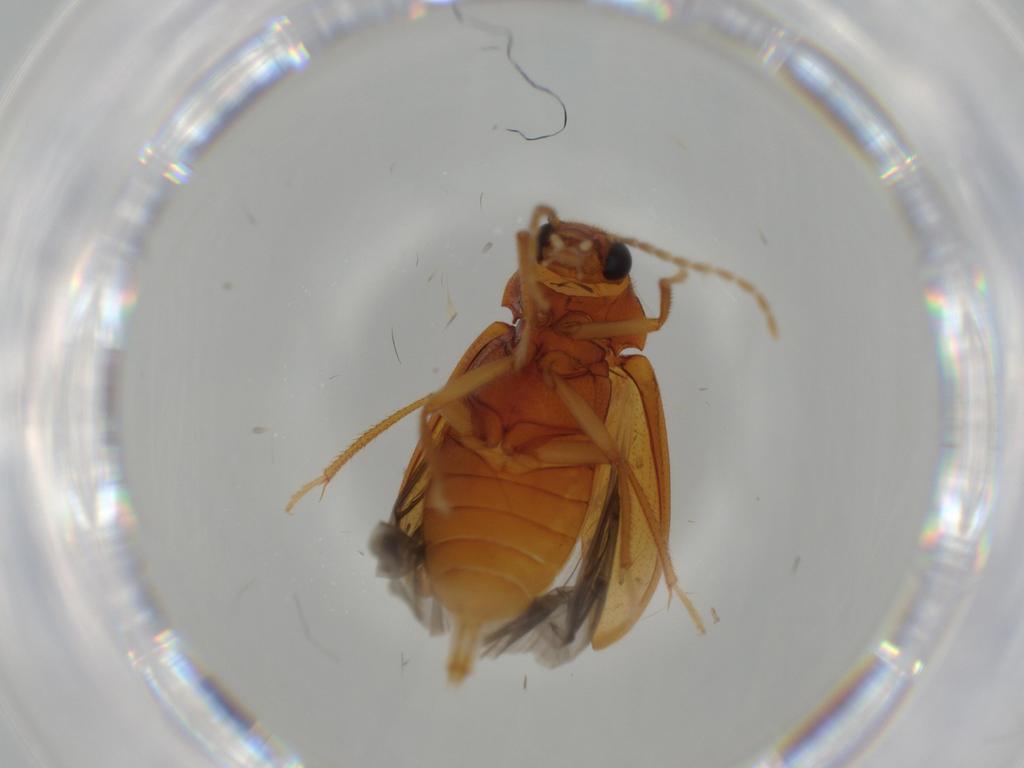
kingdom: Animalia
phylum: Arthropoda
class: Insecta
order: Coleoptera
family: Ptilodactylidae
